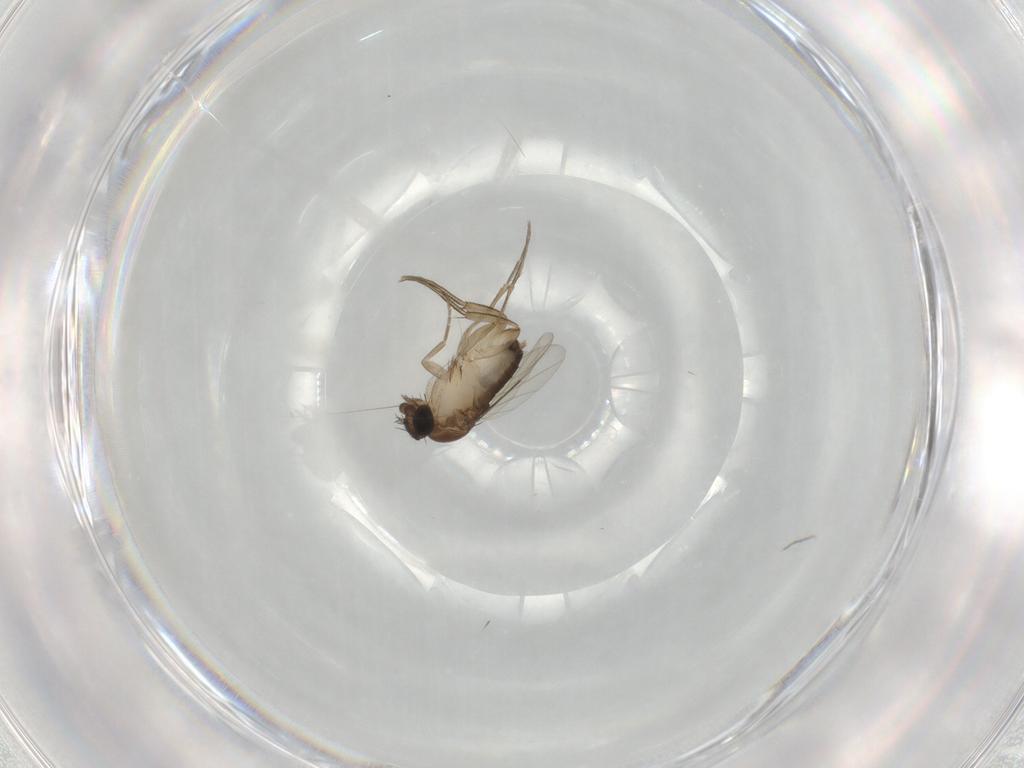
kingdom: Animalia
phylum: Arthropoda
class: Insecta
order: Diptera
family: Phoridae
